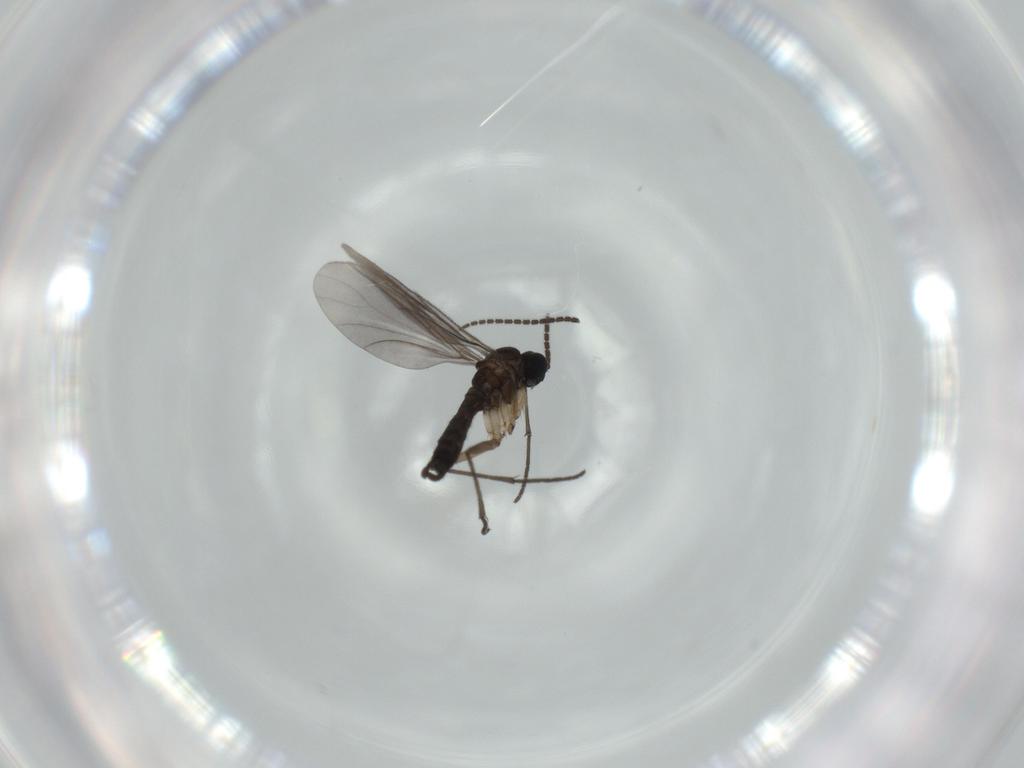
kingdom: Animalia
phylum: Arthropoda
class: Insecta
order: Diptera
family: Sciaridae
